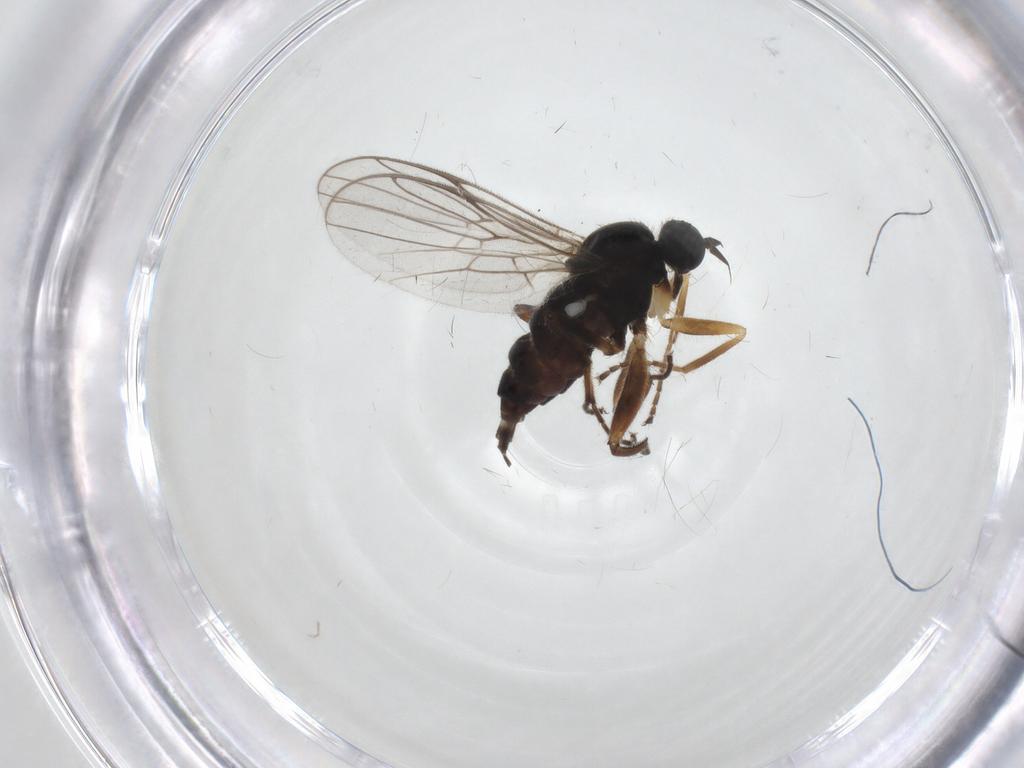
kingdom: Animalia
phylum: Arthropoda
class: Insecta
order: Diptera
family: Hybotidae
